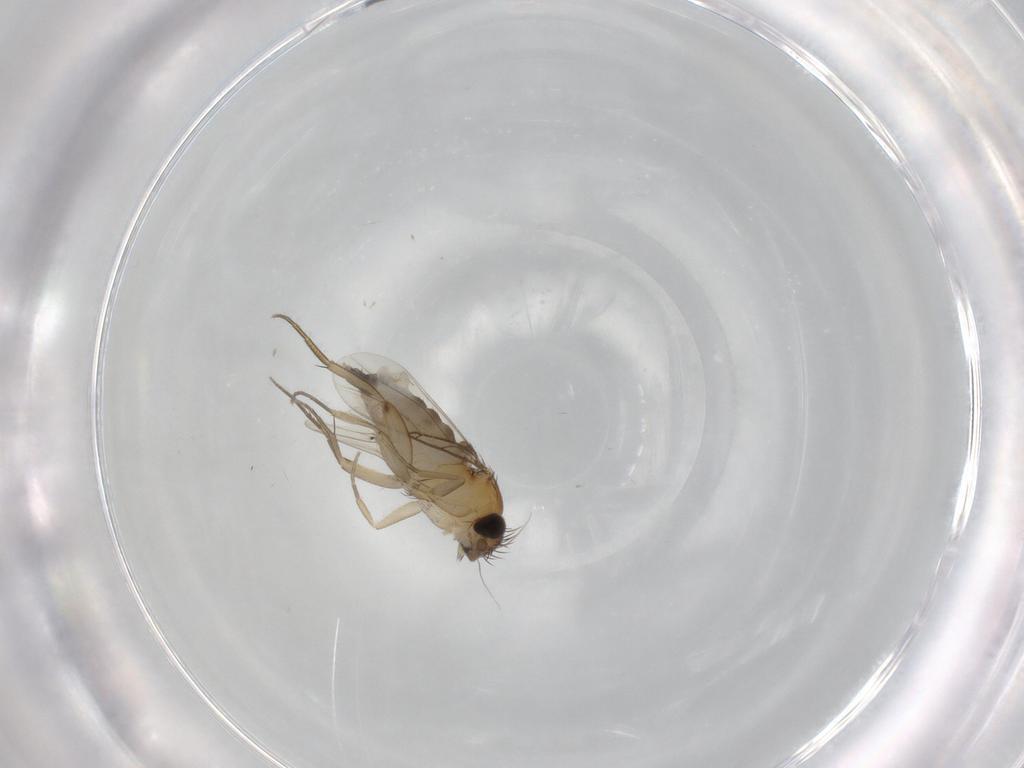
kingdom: Animalia
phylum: Arthropoda
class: Insecta
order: Diptera
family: Phoridae
